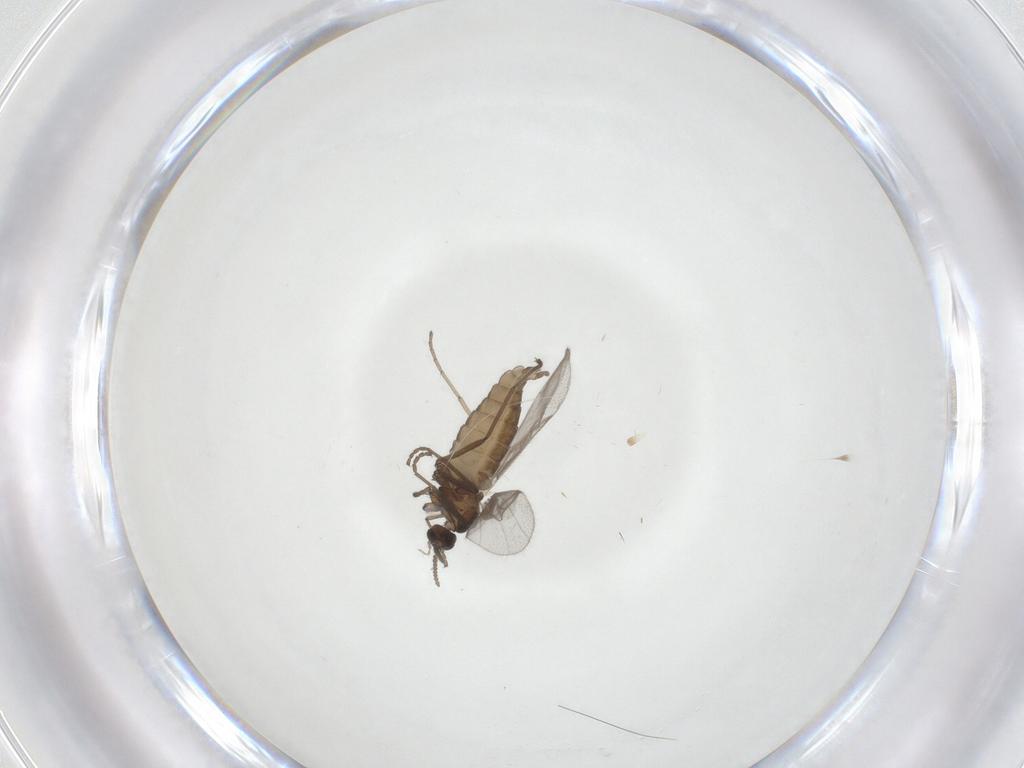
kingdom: Animalia
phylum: Arthropoda
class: Insecta
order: Diptera
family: Cecidomyiidae
